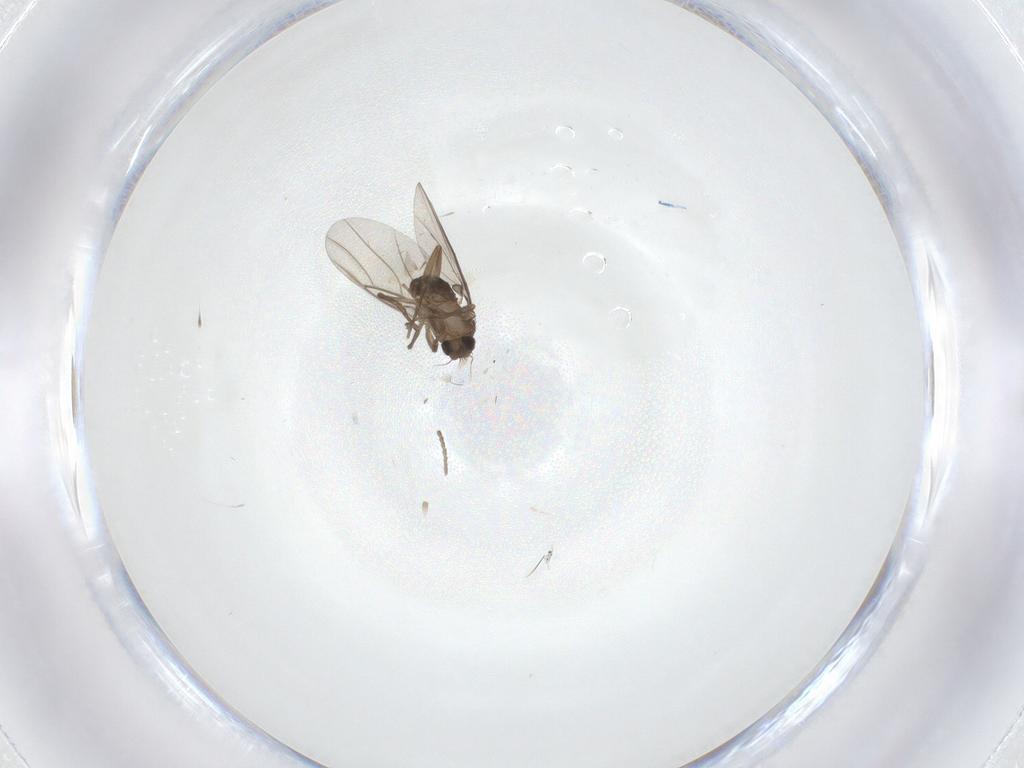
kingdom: Animalia
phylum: Arthropoda
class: Insecta
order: Diptera
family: Phoridae
